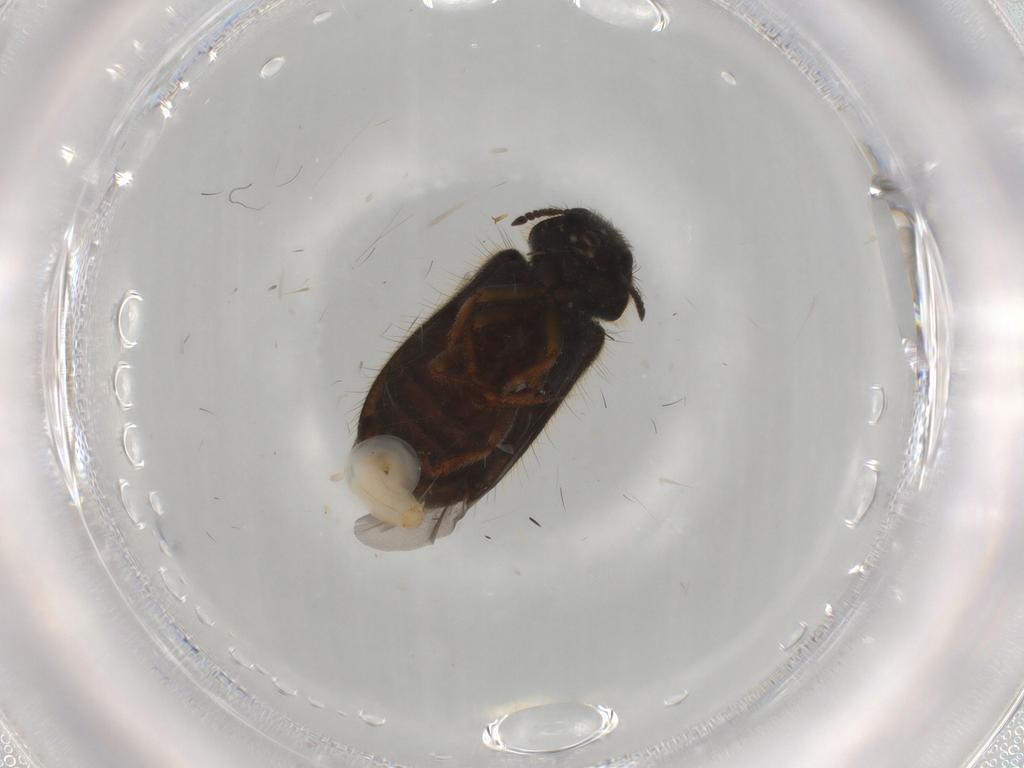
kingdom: Animalia
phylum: Arthropoda
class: Insecta
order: Coleoptera
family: Melyridae
